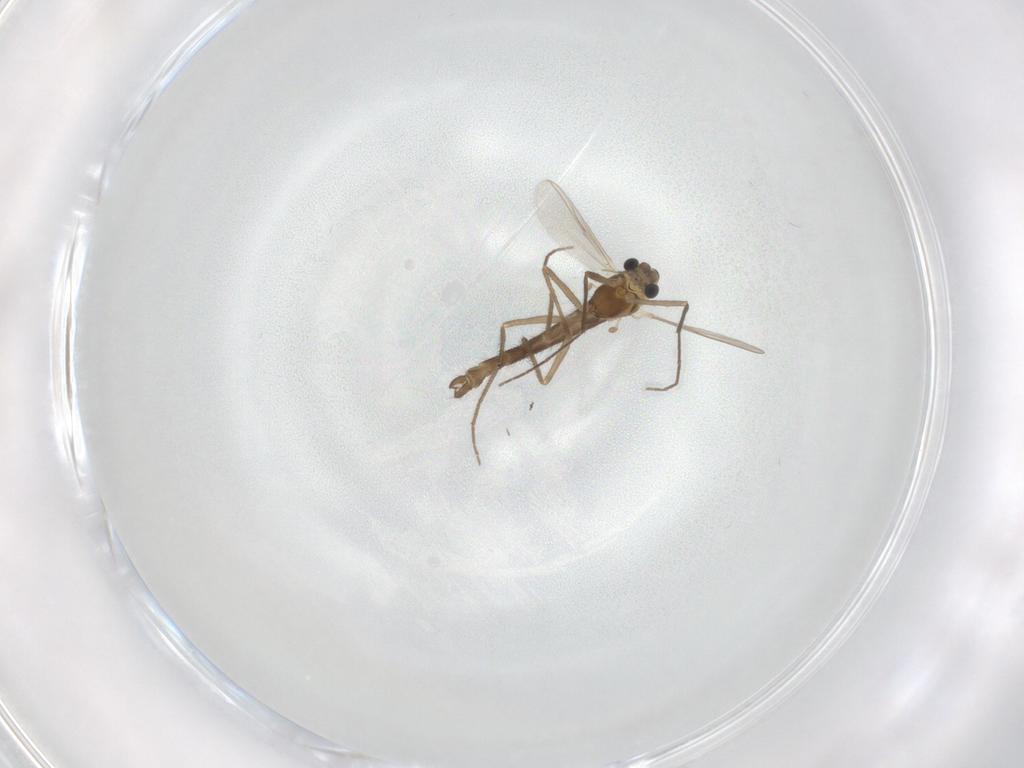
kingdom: Animalia
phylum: Arthropoda
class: Insecta
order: Diptera
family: Chironomidae
